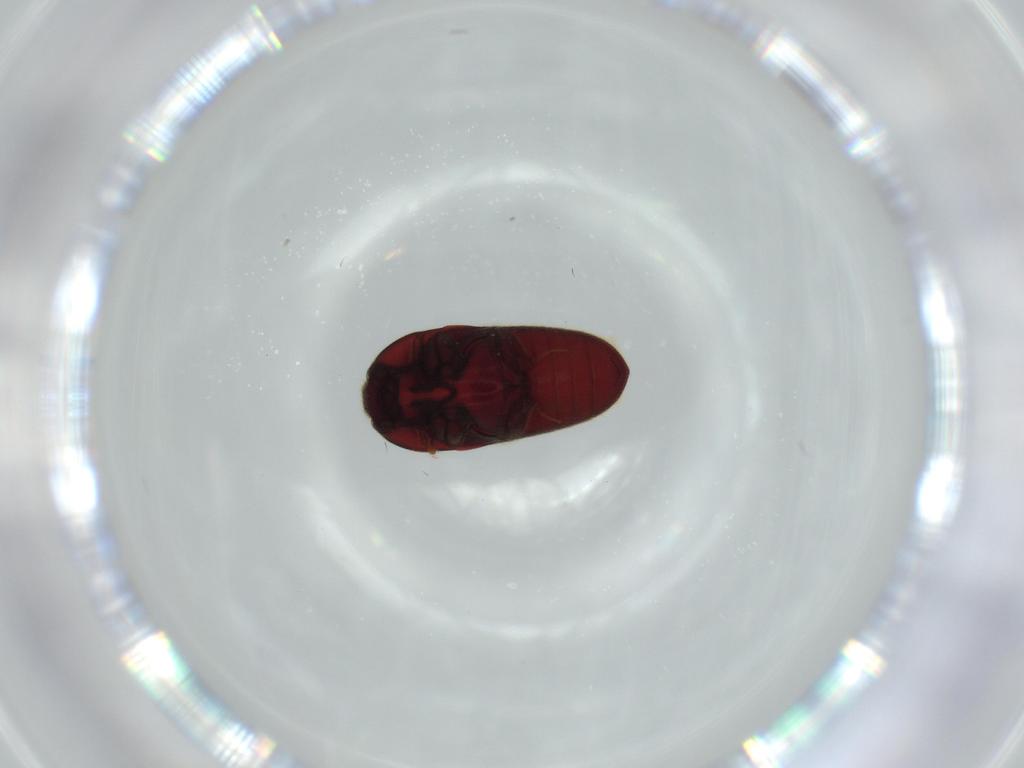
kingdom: Animalia
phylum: Arthropoda
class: Insecta
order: Coleoptera
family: Throscidae
